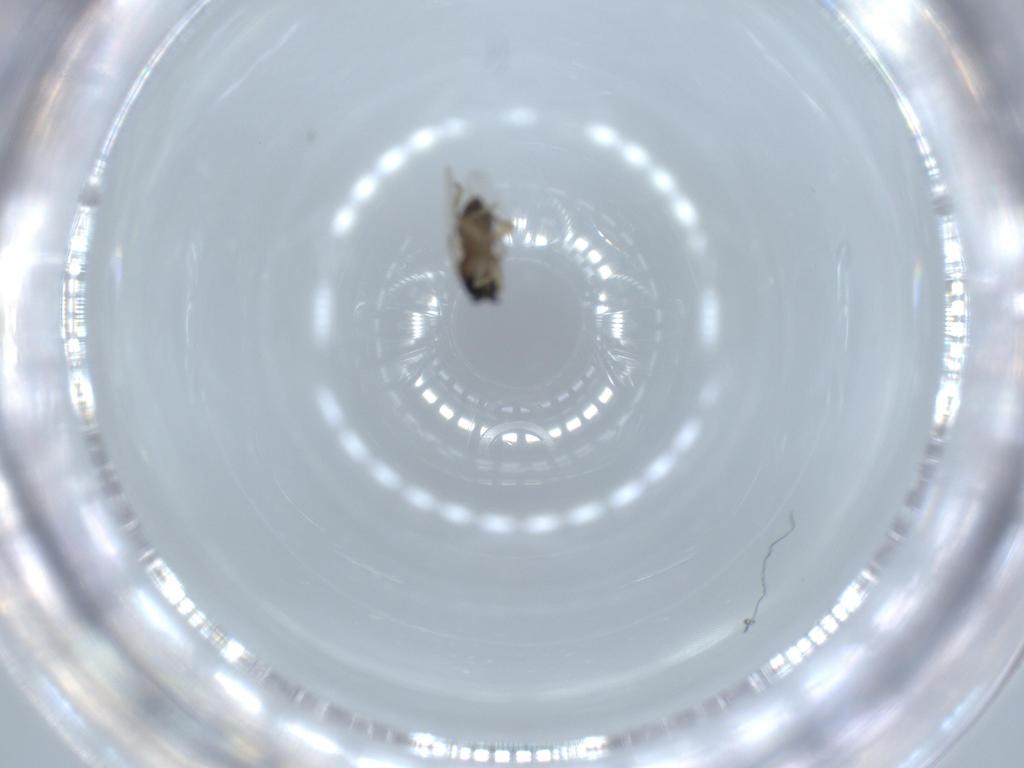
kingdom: Animalia
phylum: Arthropoda
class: Insecta
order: Diptera
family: Phoridae
